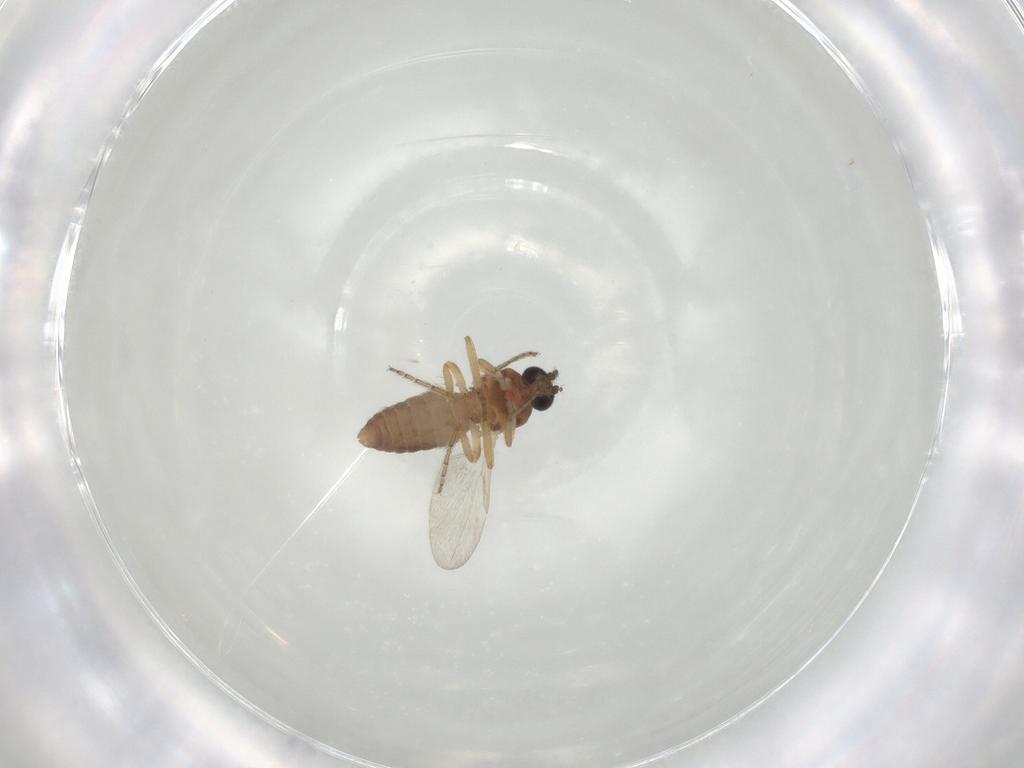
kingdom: Animalia
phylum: Arthropoda
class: Insecta
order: Diptera
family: Ceratopogonidae
